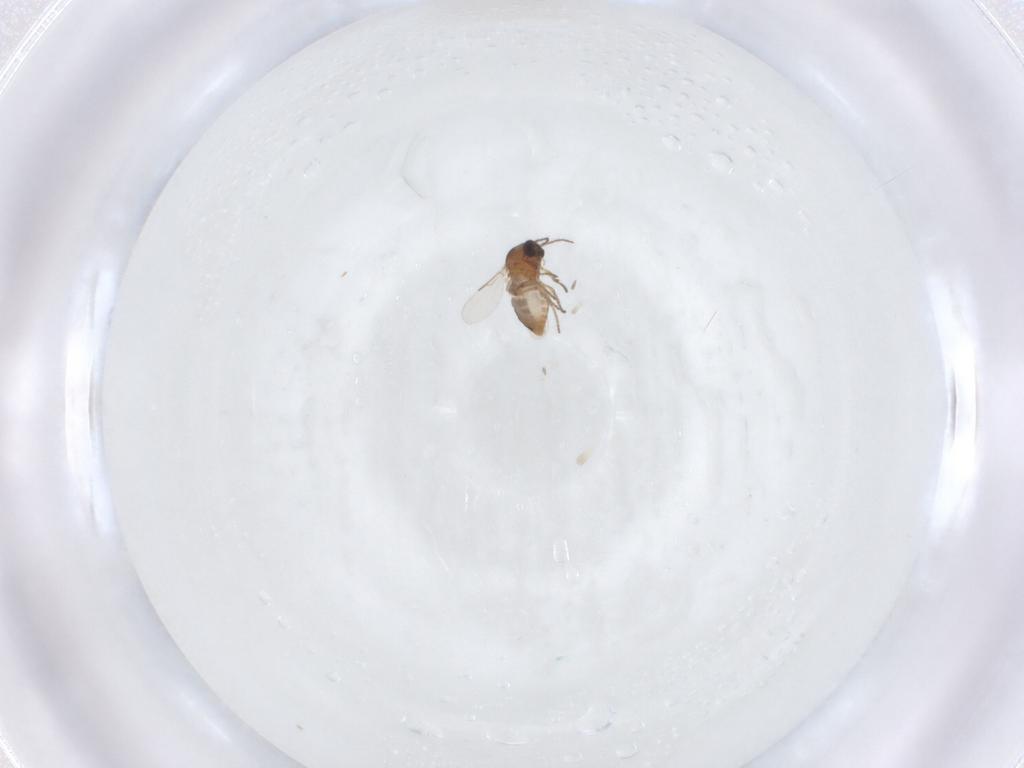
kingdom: Animalia
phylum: Arthropoda
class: Insecta
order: Diptera
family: Ceratopogonidae
